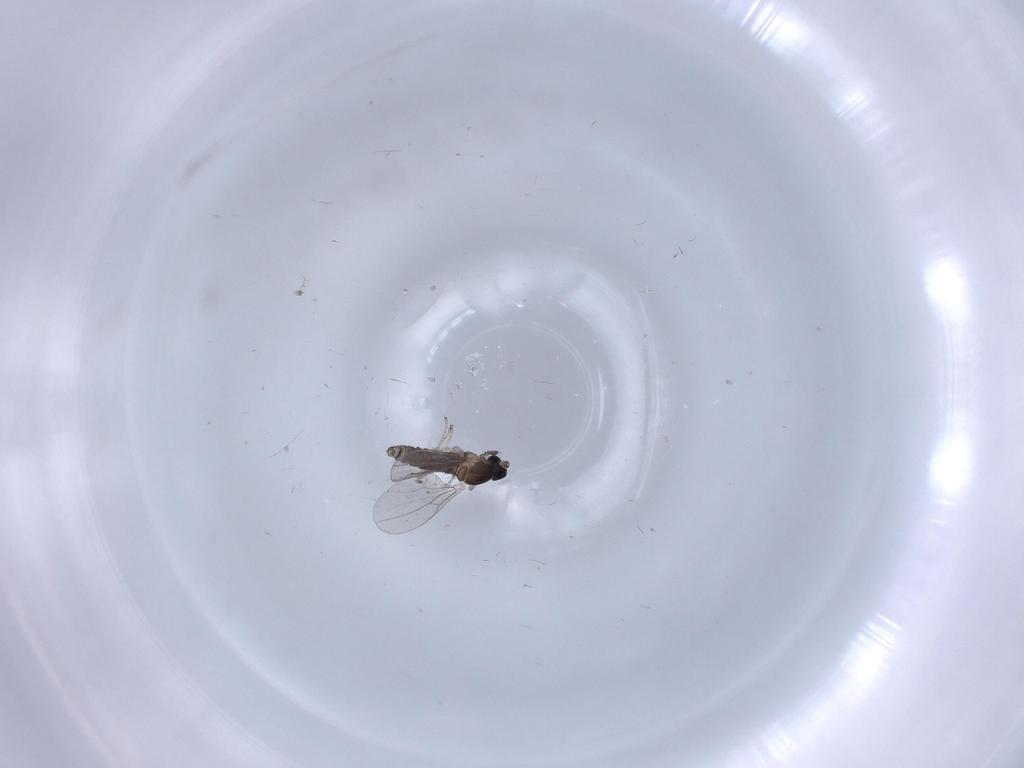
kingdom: Animalia
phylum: Arthropoda
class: Insecta
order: Diptera
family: Cecidomyiidae
